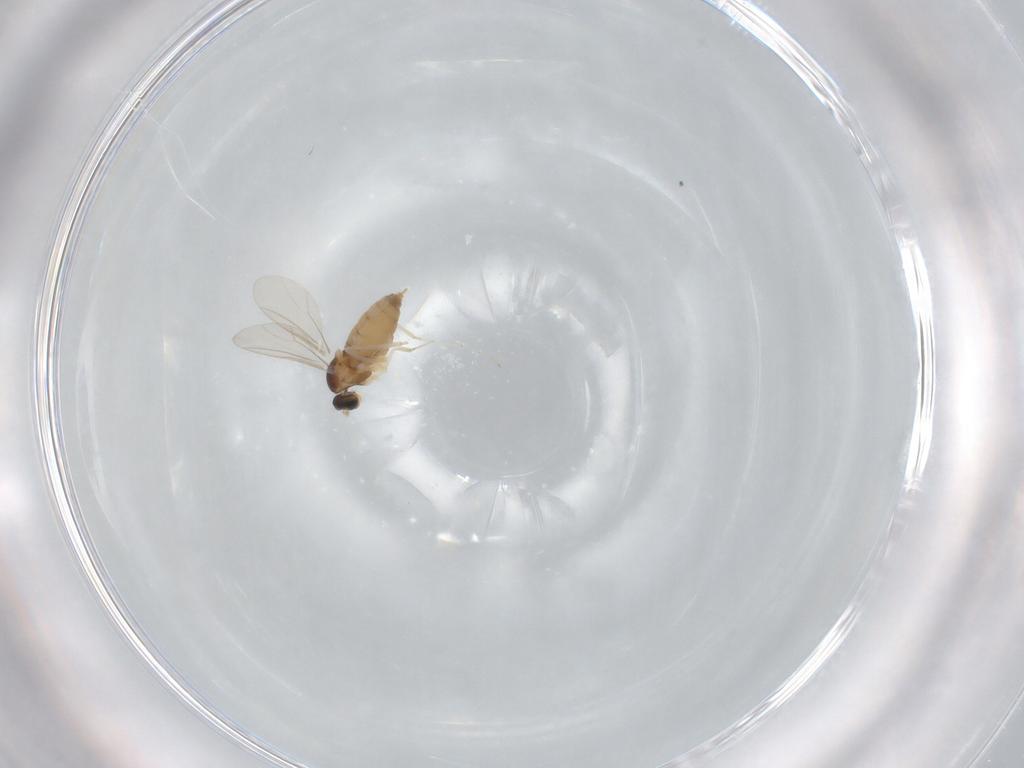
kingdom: Animalia
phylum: Arthropoda
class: Insecta
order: Diptera
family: Cecidomyiidae
